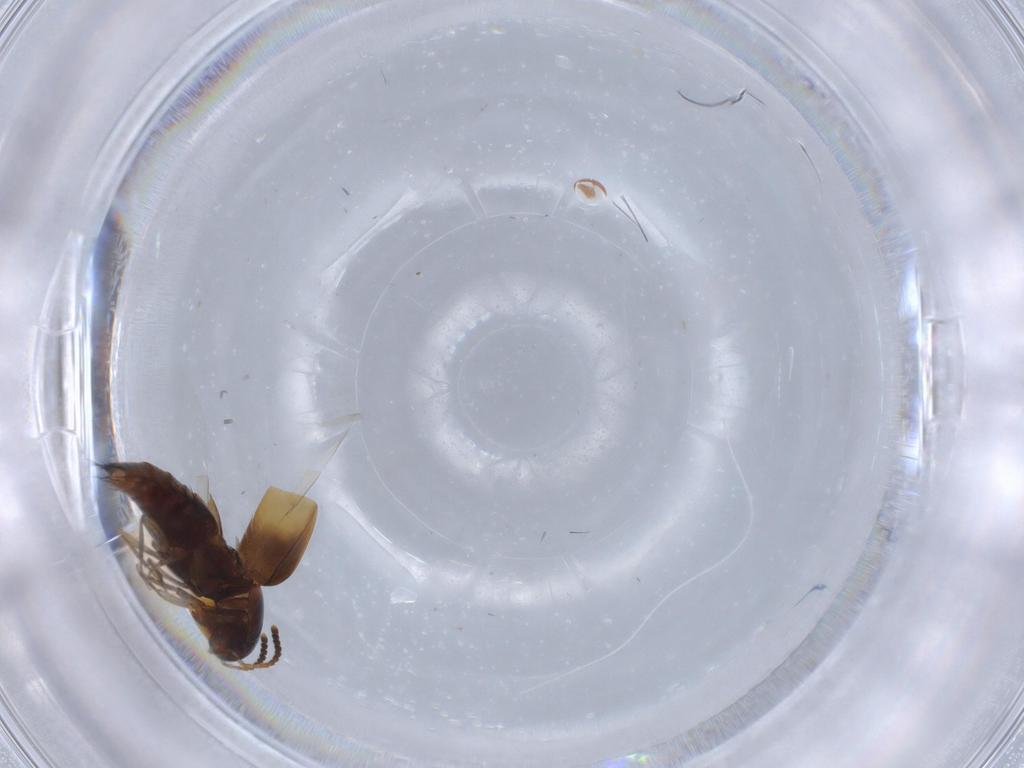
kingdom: Animalia
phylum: Arthropoda
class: Insecta
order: Coleoptera
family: Staphylinidae
